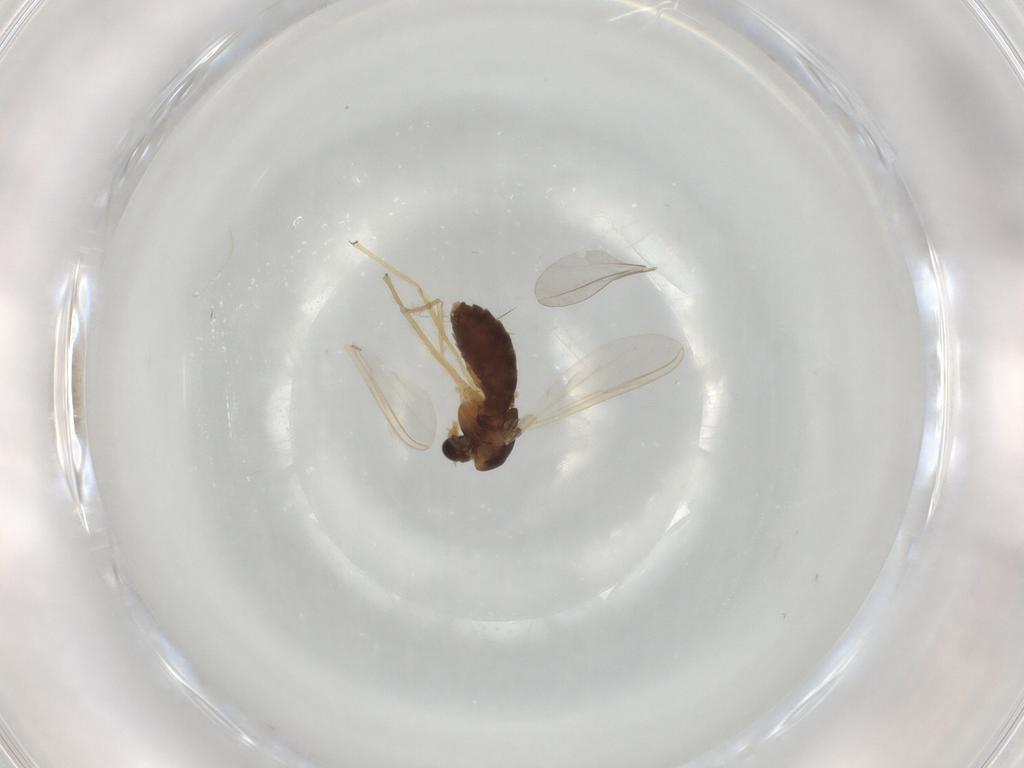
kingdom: Animalia
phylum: Arthropoda
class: Insecta
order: Diptera
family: Chironomidae
